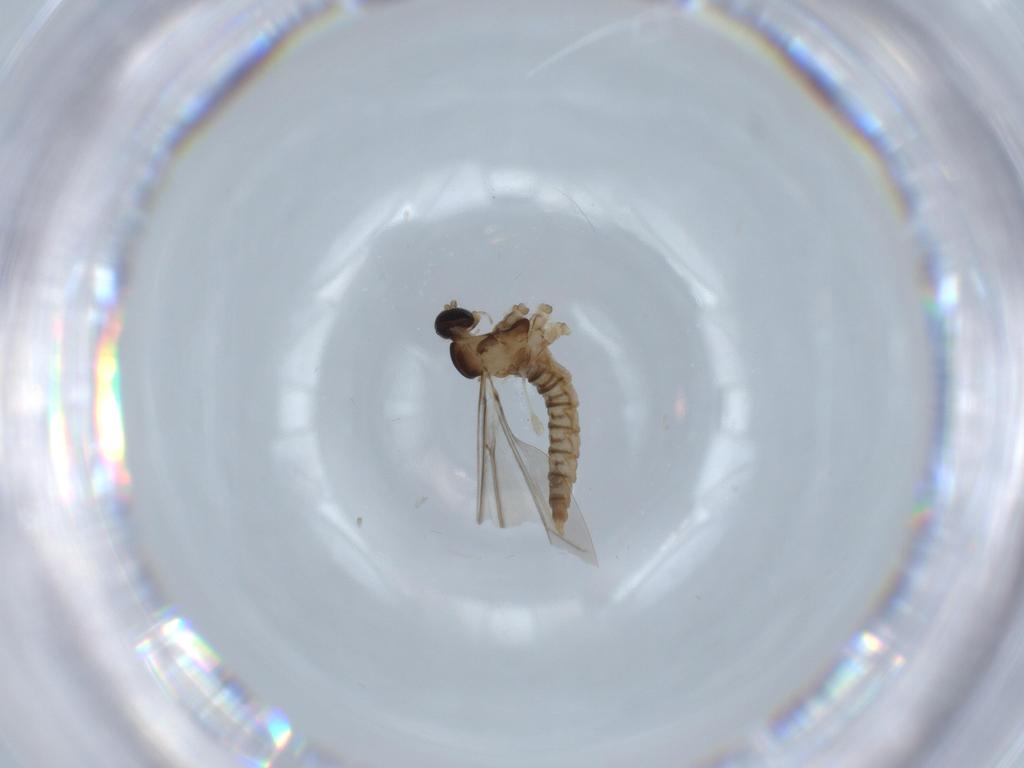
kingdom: Animalia
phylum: Arthropoda
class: Insecta
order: Diptera
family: Cecidomyiidae
